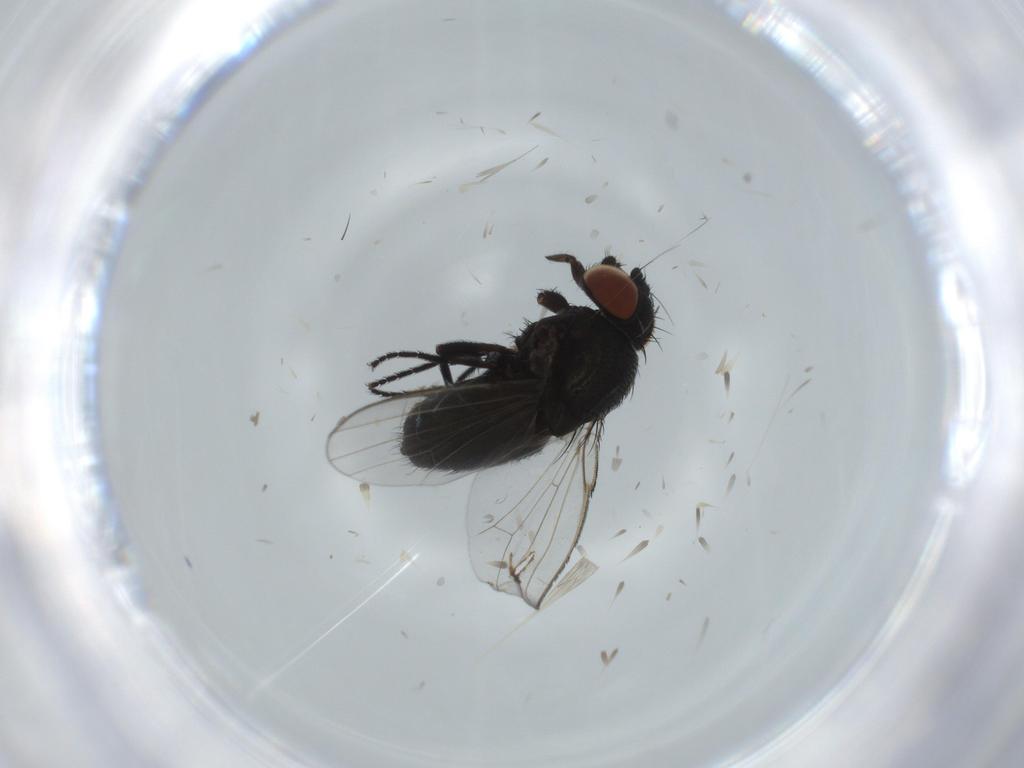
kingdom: Animalia
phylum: Arthropoda
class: Insecta
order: Diptera
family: Milichiidae
